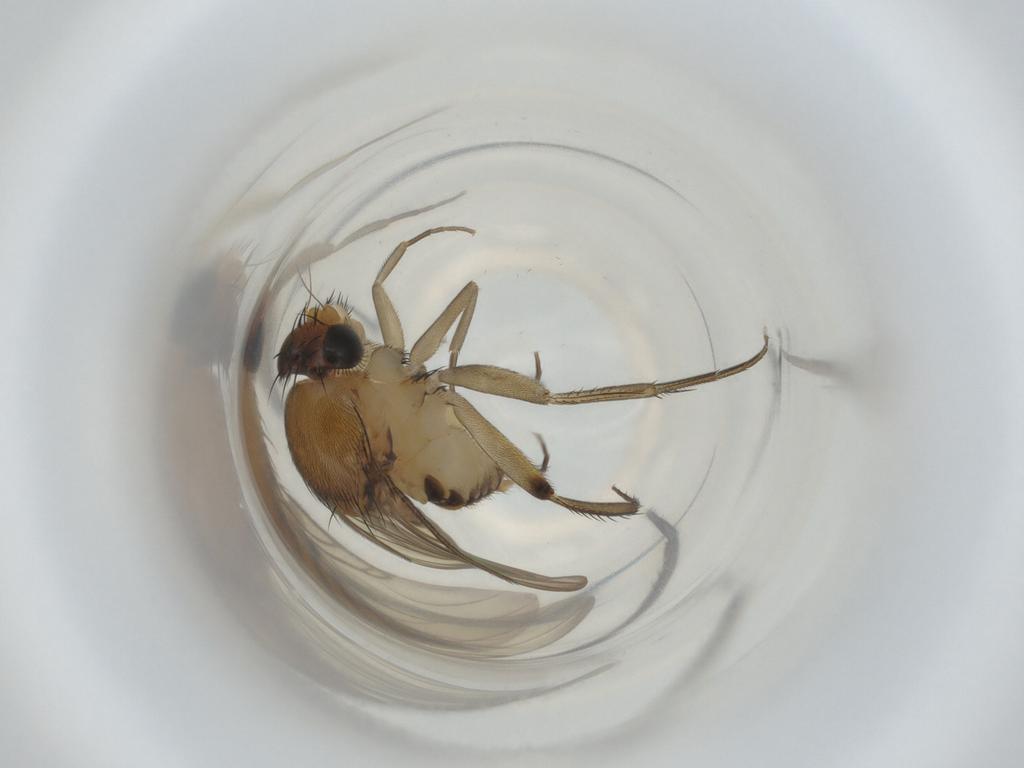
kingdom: Animalia
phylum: Arthropoda
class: Insecta
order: Diptera
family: Phoridae
